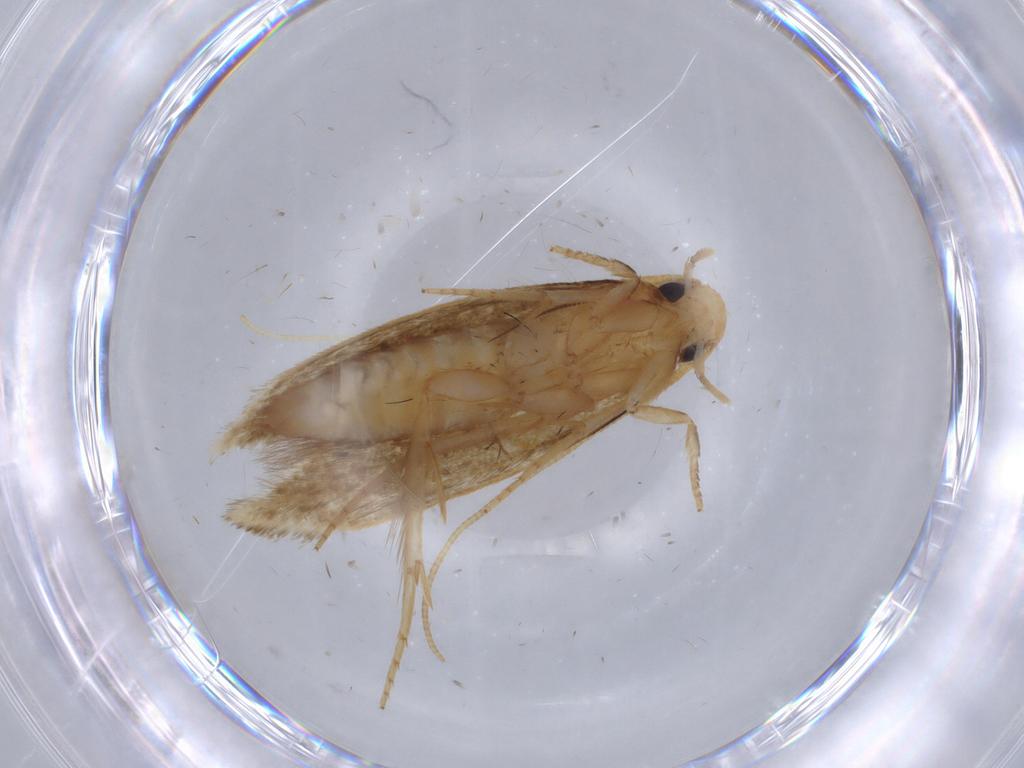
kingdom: Animalia
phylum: Arthropoda
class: Insecta
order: Lepidoptera
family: Tineidae
